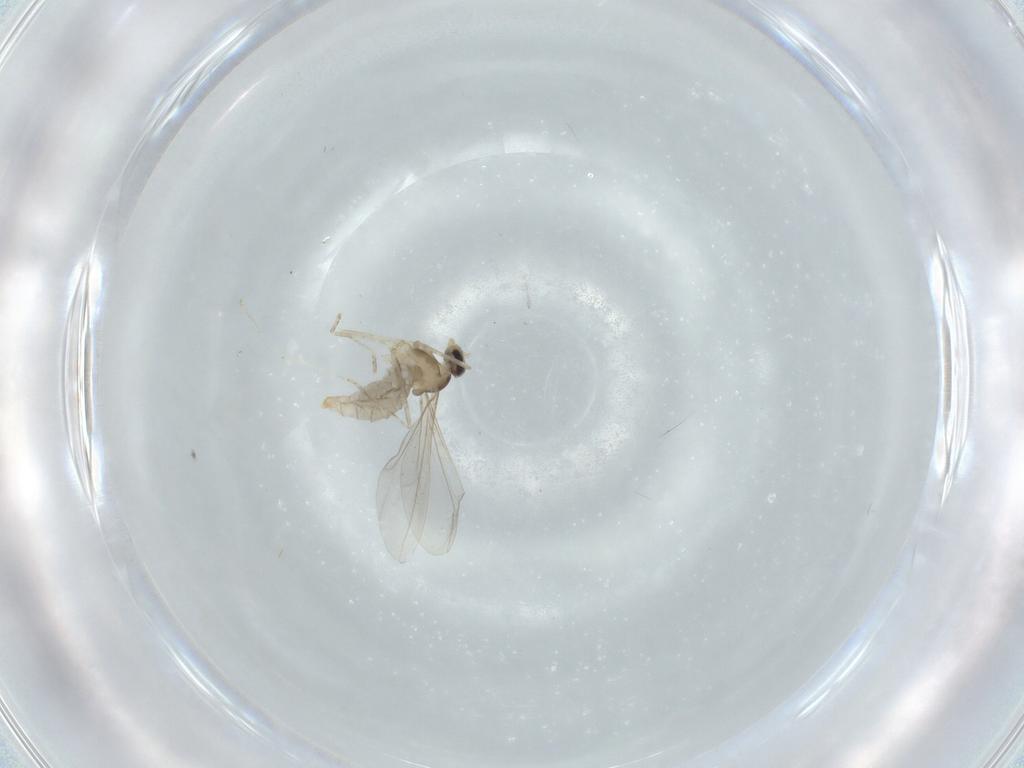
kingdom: Animalia
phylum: Arthropoda
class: Insecta
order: Diptera
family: Cecidomyiidae
